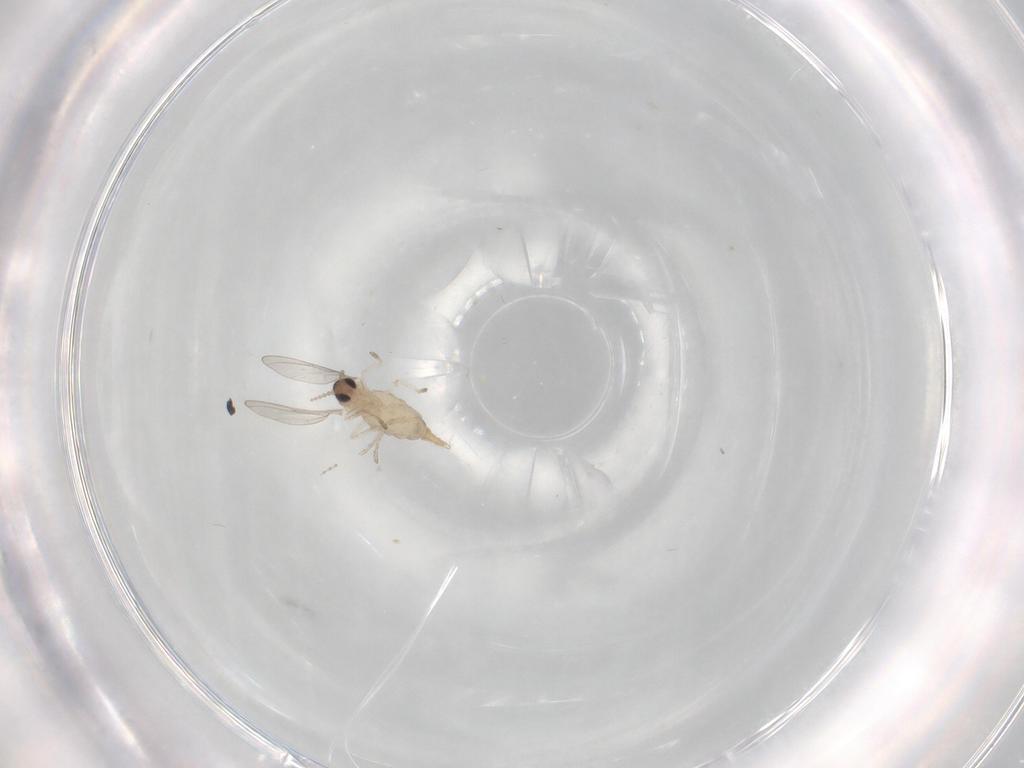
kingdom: Animalia
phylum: Arthropoda
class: Insecta
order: Diptera
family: Cecidomyiidae
